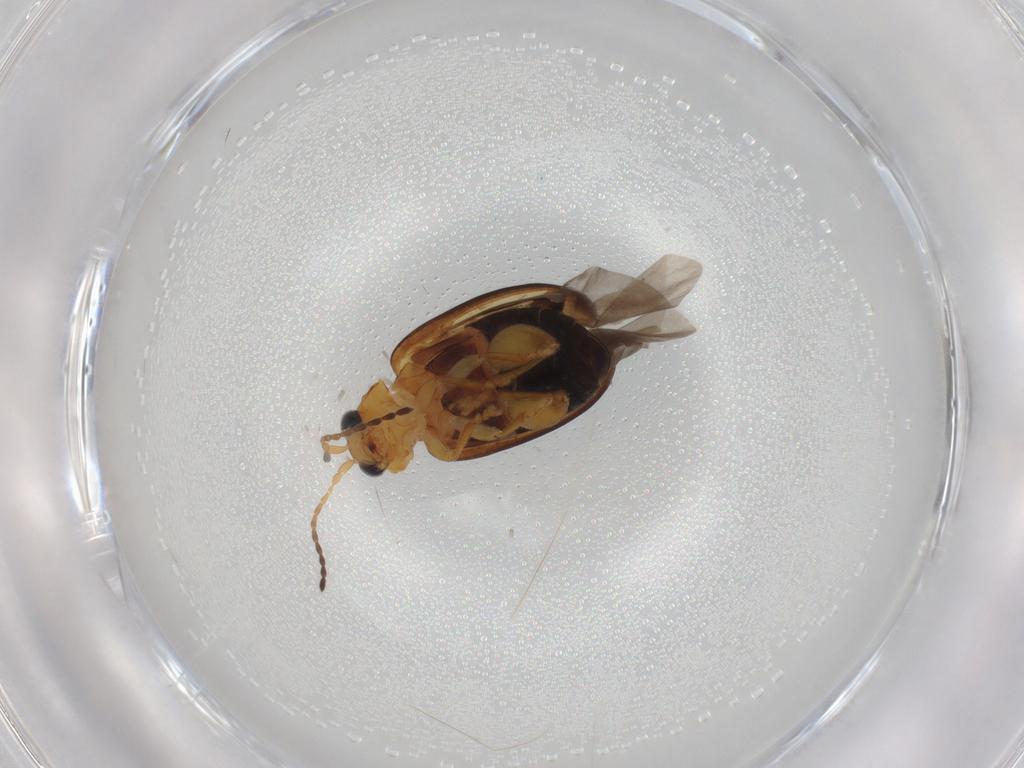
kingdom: Animalia
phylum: Arthropoda
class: Insecta
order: Coleoptera
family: Chrysomelidae
